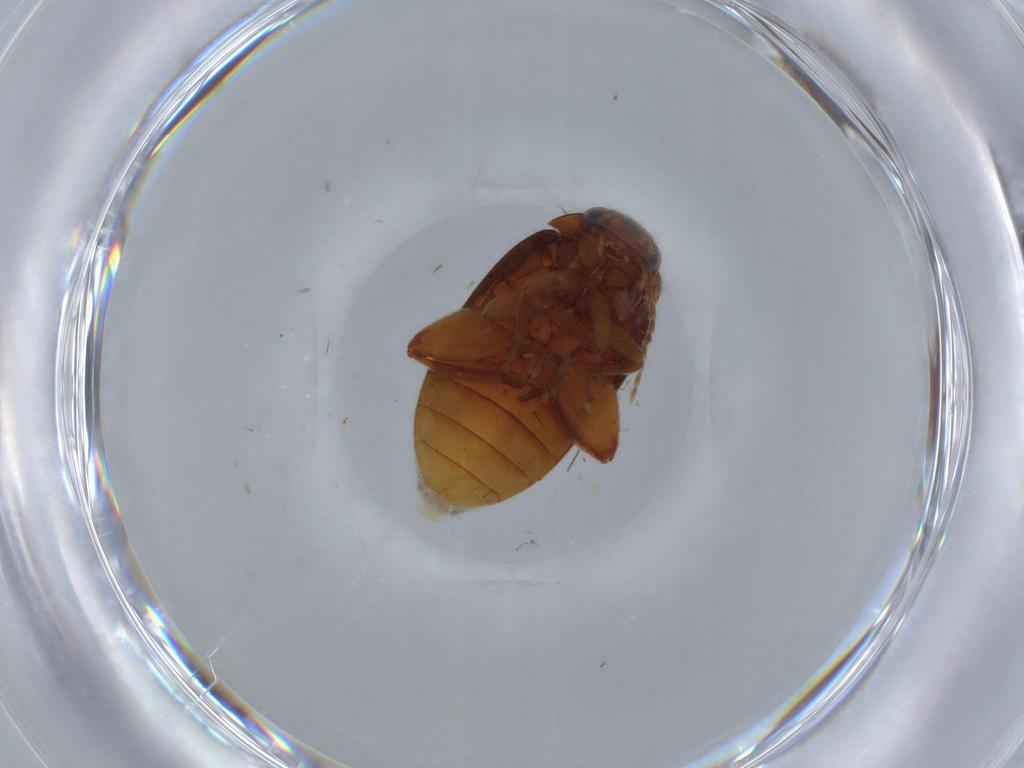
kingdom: Animalia
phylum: Arthropoda
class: Insecta
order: Coleoptera
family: Scirtidae
